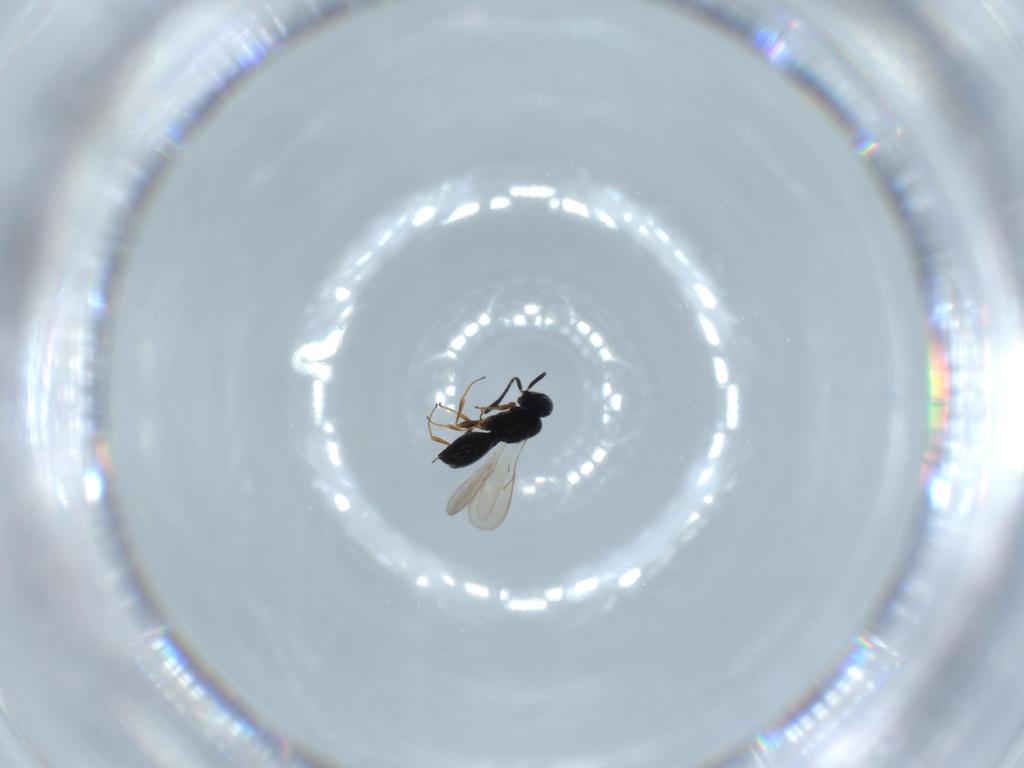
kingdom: Animalia
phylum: Arthropoda
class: Insecta
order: Hymenoptera
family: Scelionidae
